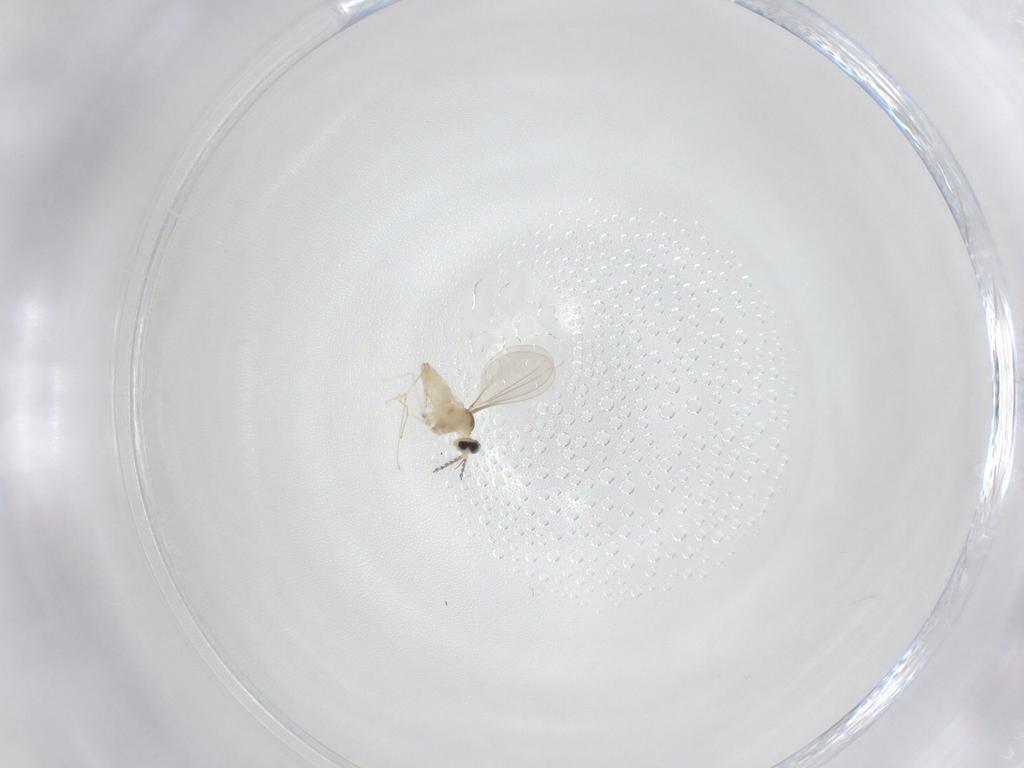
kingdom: Animalia
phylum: Arthropoda
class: Insecta
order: Diptera
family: Cecidomyiidae
